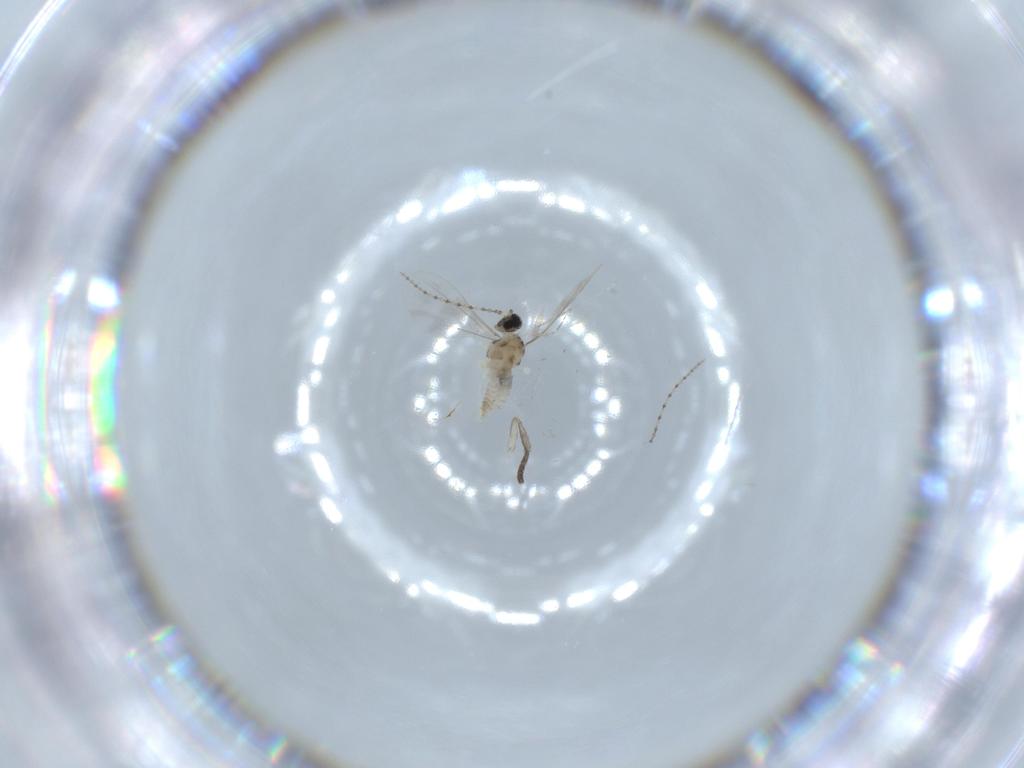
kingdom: Animalia
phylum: Arthropoda
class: Insecta
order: Diptera
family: Cecidomyiidae
